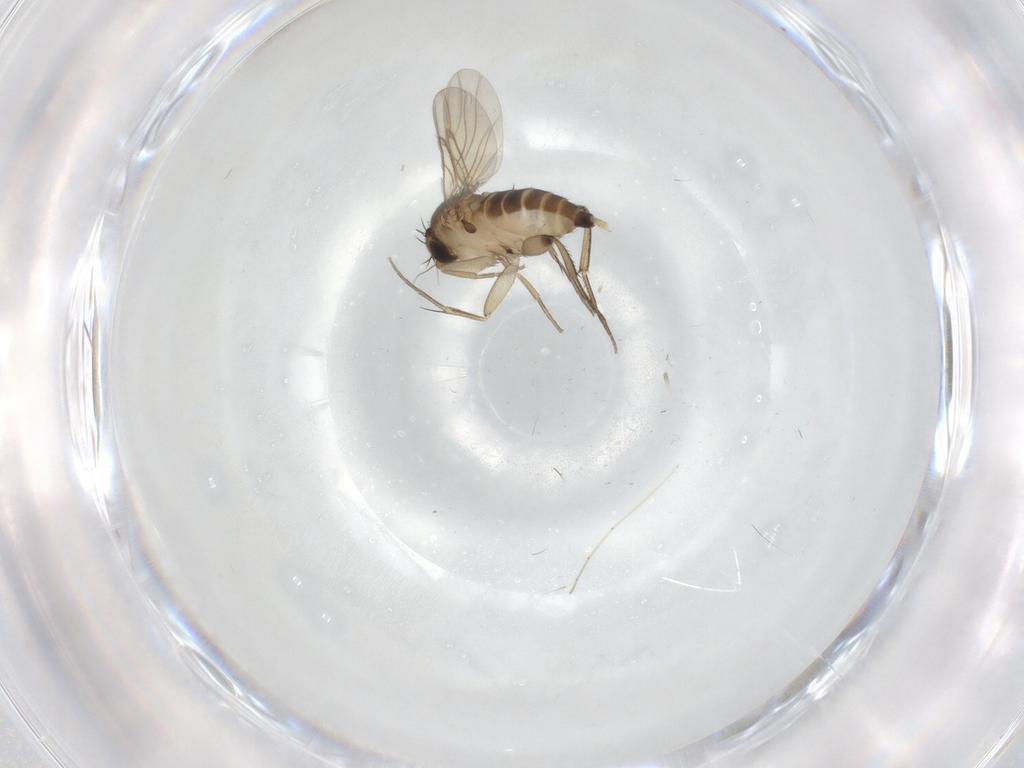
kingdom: Animalia
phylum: Arthropoda
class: Insecta
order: Diptera
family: Cecidomyiidae
